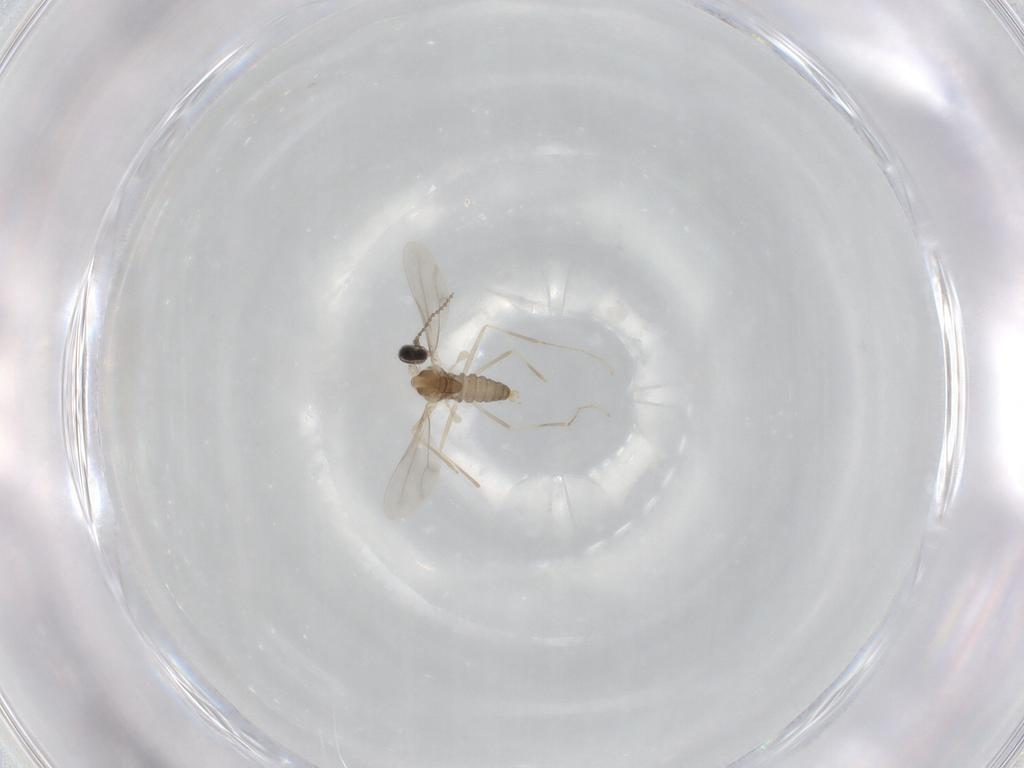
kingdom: Animalia
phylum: Arthropoda
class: Insecta
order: Diptera
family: Cecidomyiidae
